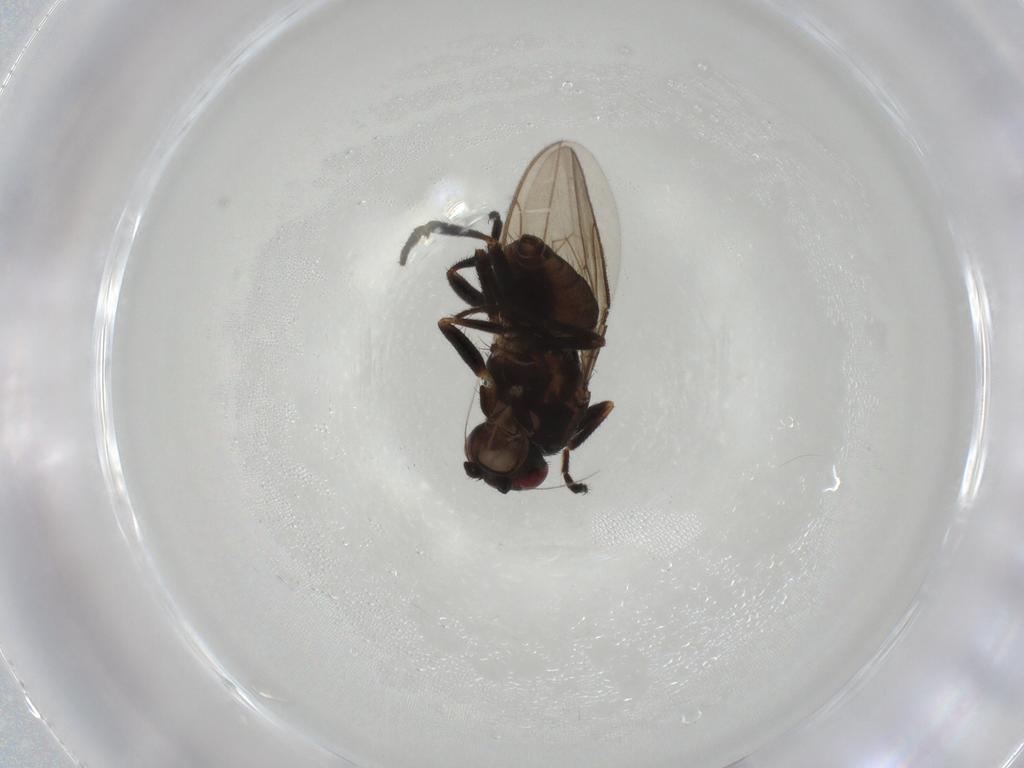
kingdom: Animalia
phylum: Arthropoda
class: Insecta
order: Diptera
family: Sphaeroceridae
